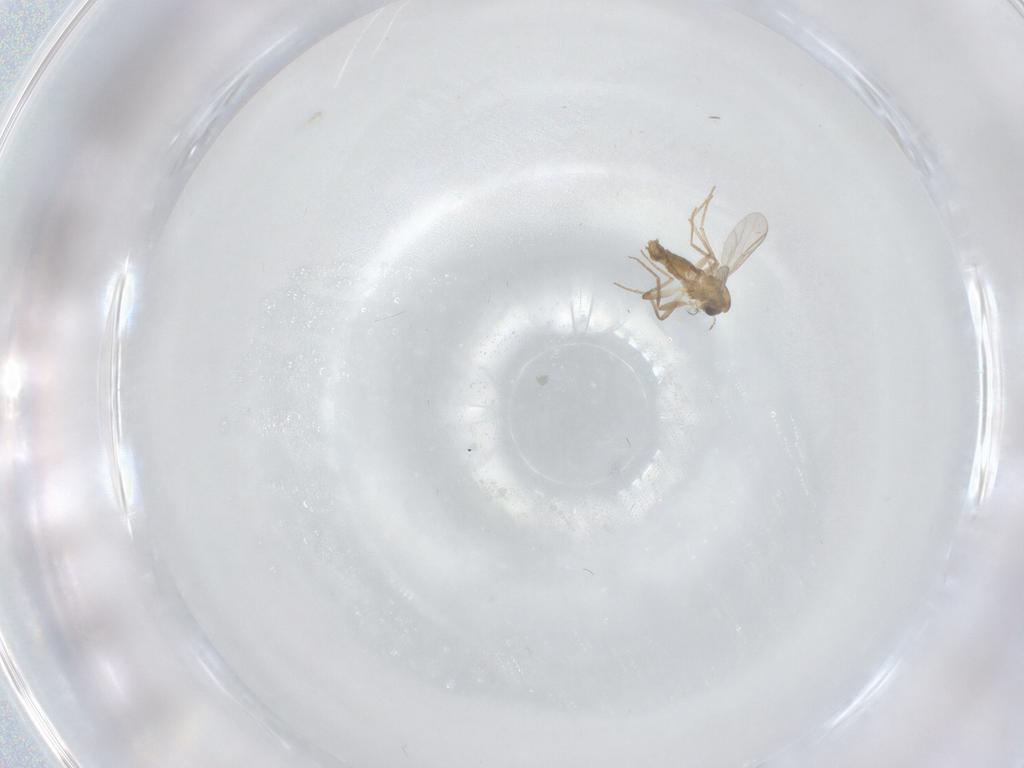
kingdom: Animalia
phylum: Arthropoda
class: Insecta
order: Diptera
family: Chironomidae
